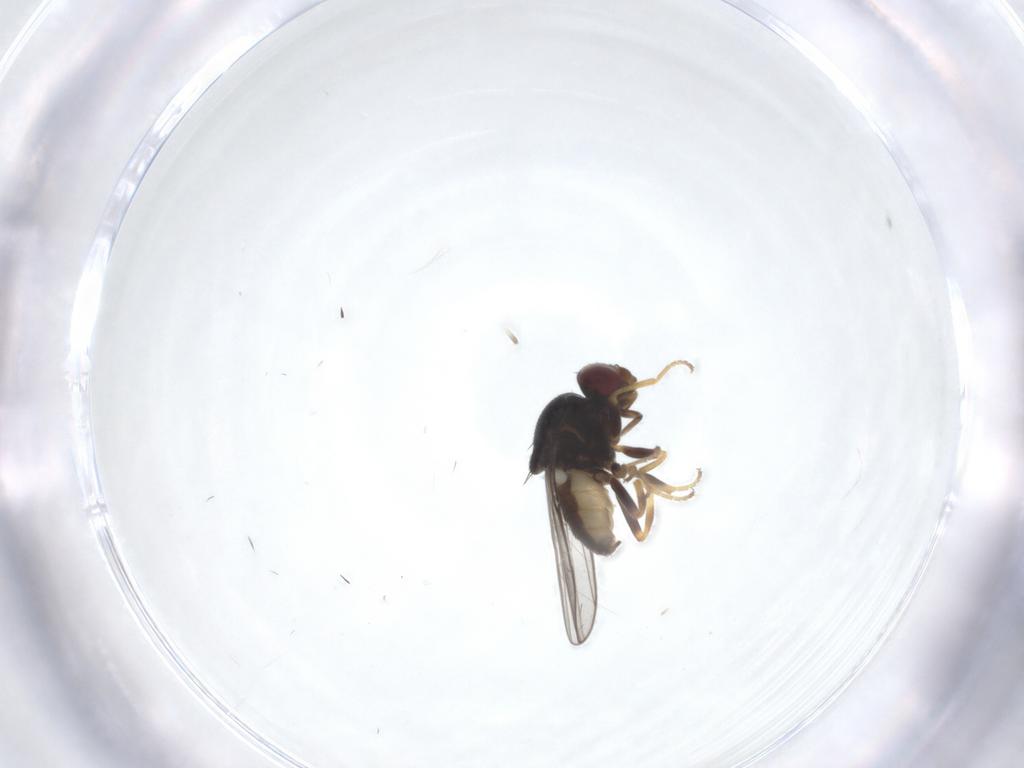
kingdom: Animalia
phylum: Arthropoda
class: Insecta
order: Diptera
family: Chloropidae
